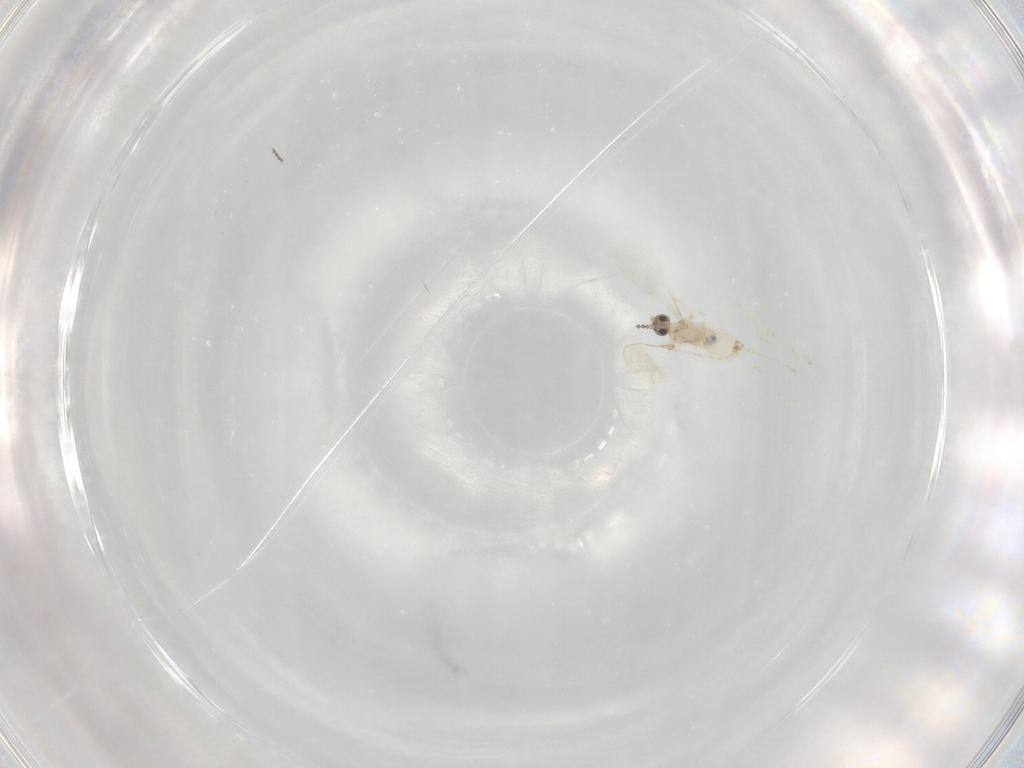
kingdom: Animalia
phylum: Arthropoda
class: Insecta
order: Diptera
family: Cecidomyiidae
